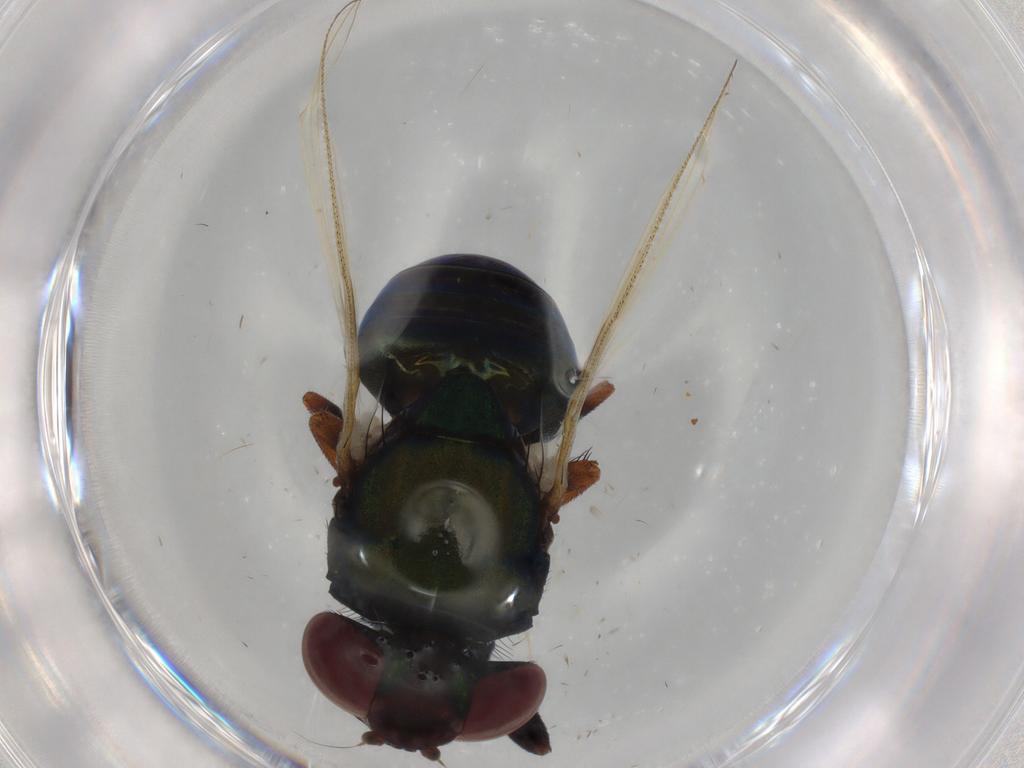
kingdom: Animalia
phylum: Arthropoda
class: Insecta
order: Diptera
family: Cecidomyiidae
